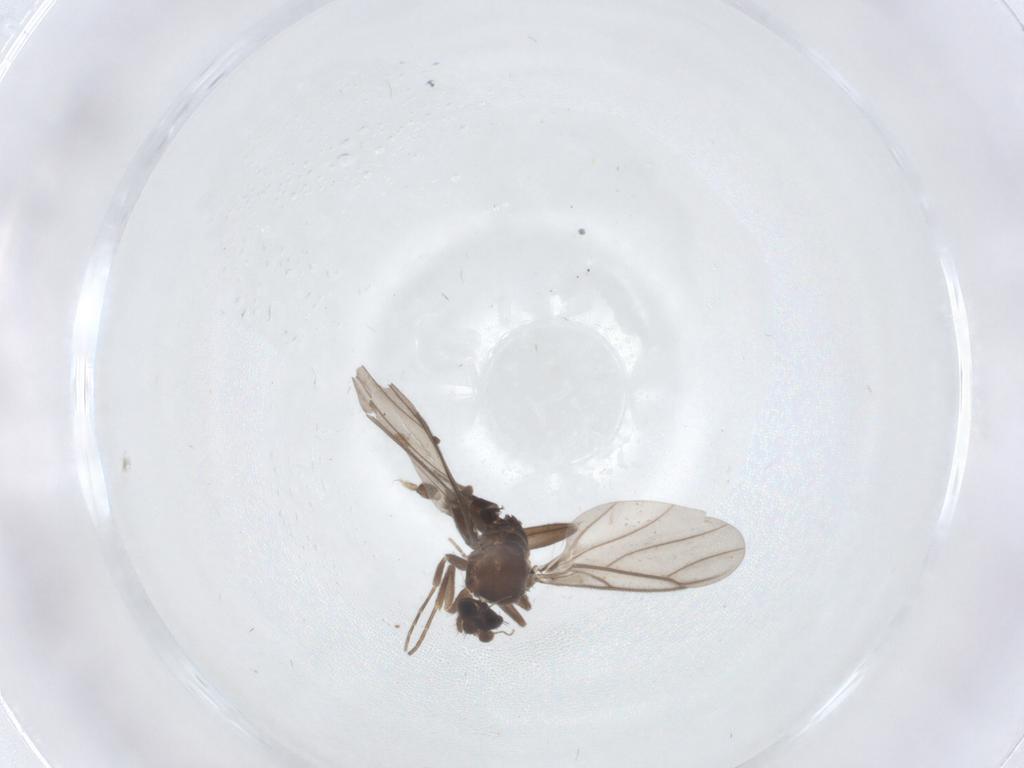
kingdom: Animalia
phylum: Arthropoda
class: Insecta
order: Diptera
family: Ceratopogonidae
